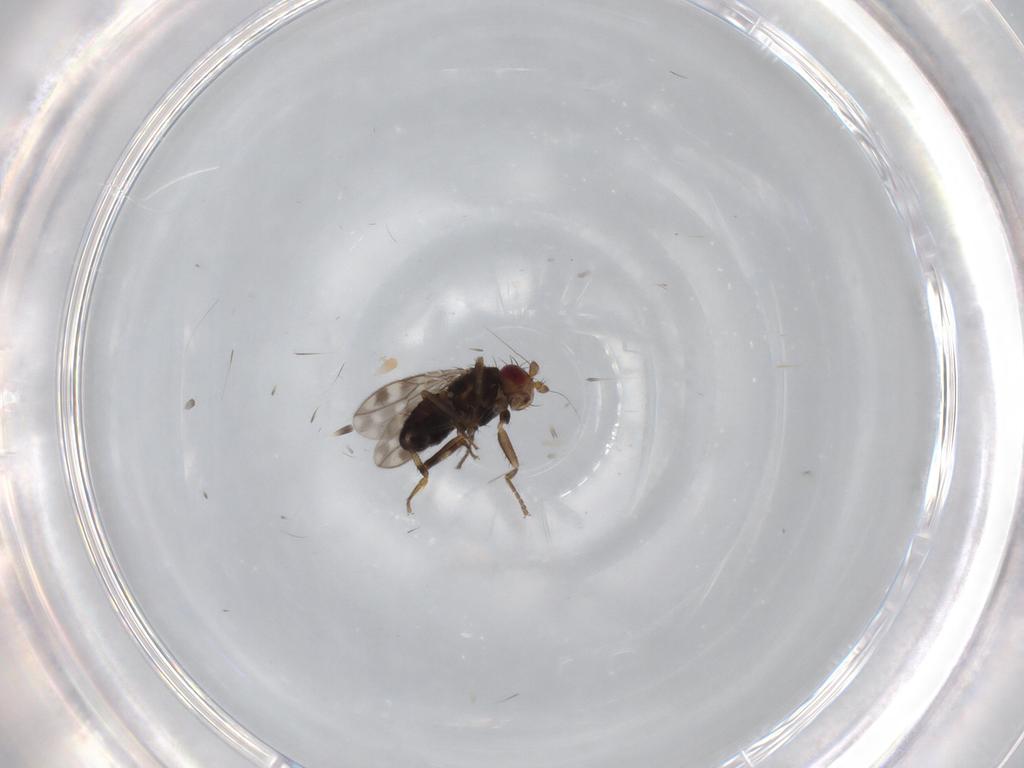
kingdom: Animalia
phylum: Arthropoda
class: Insecta
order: Diptera
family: Sphaeroceridae
